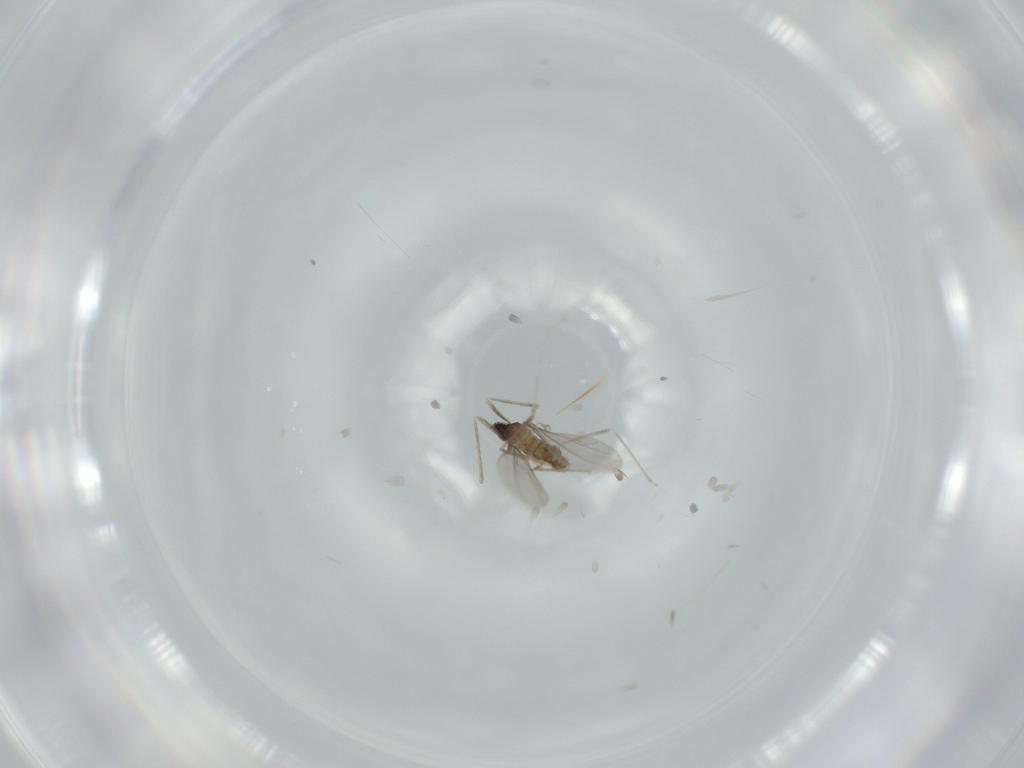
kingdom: Animalia
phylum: Arthropoda
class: Insecta
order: Diptera
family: Cecidomyiidae
